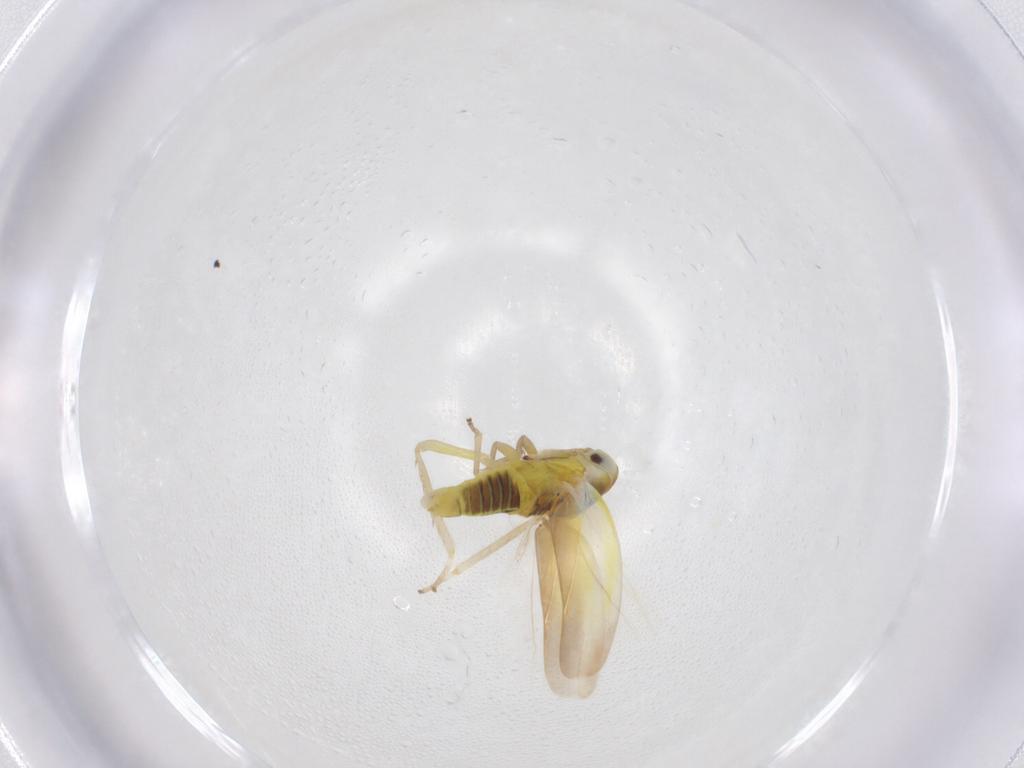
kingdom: Animalia
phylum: Arthropoda
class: Insecta
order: Hemiptera
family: Cicadellidae
